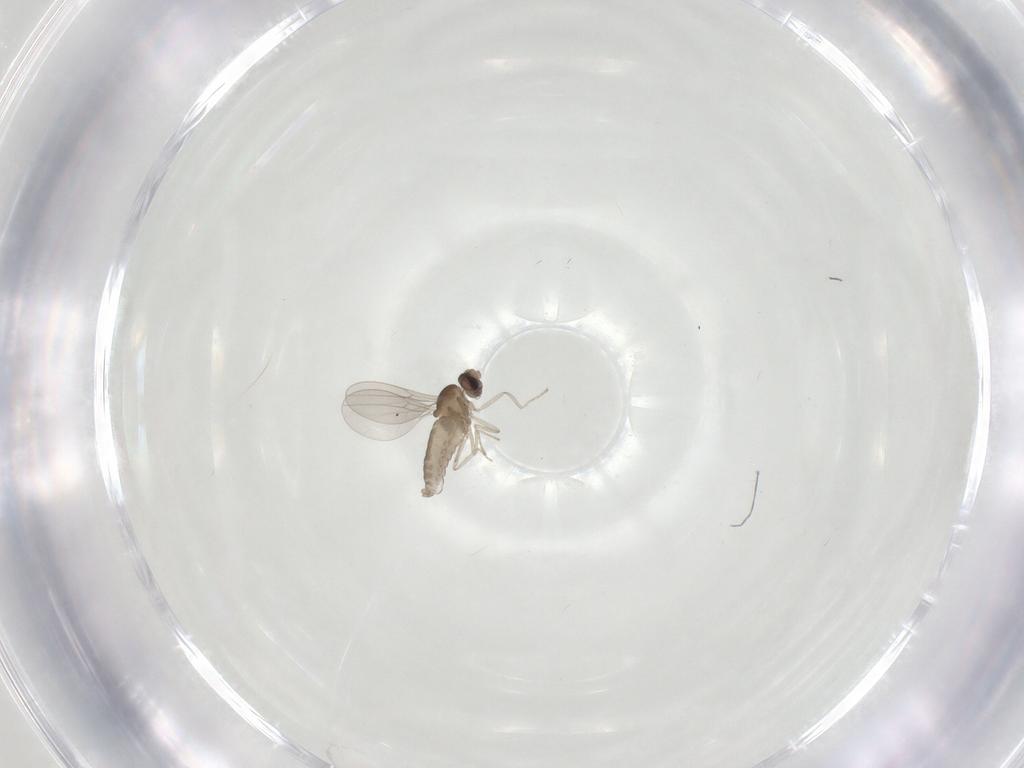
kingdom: Animalia
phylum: Arthropoda
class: Insecta
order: Diptera
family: Cecidomyiidae
